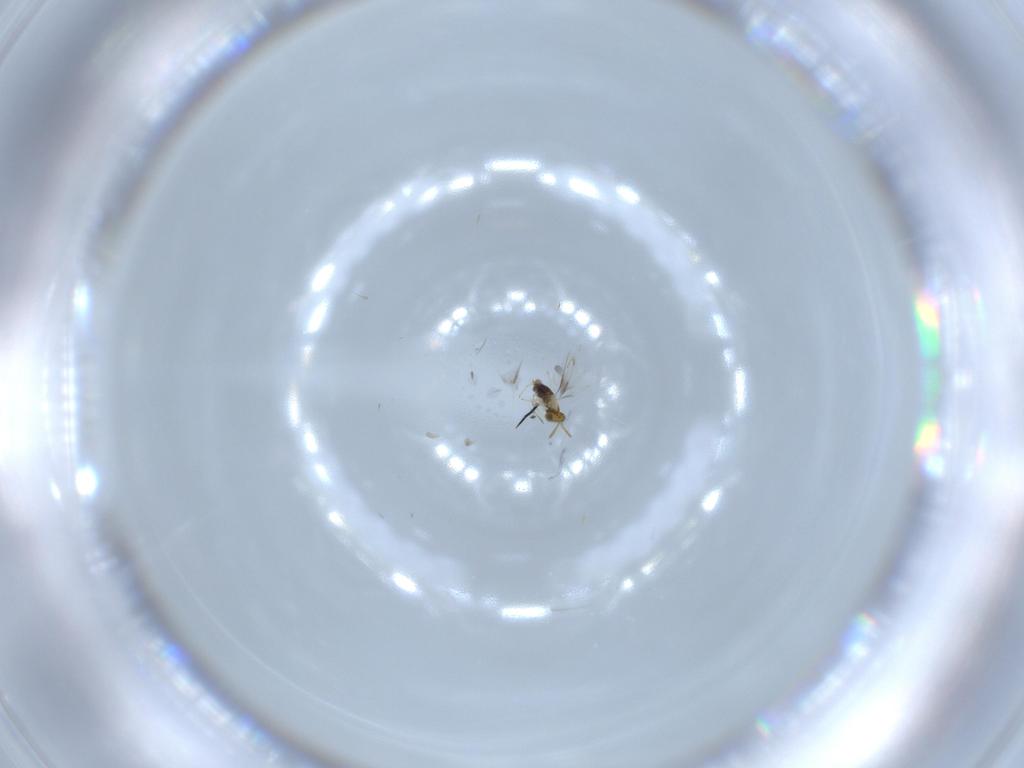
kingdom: Animalia
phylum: Arthropoda
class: Insecta
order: Hymenoptera
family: Aphelinidae
